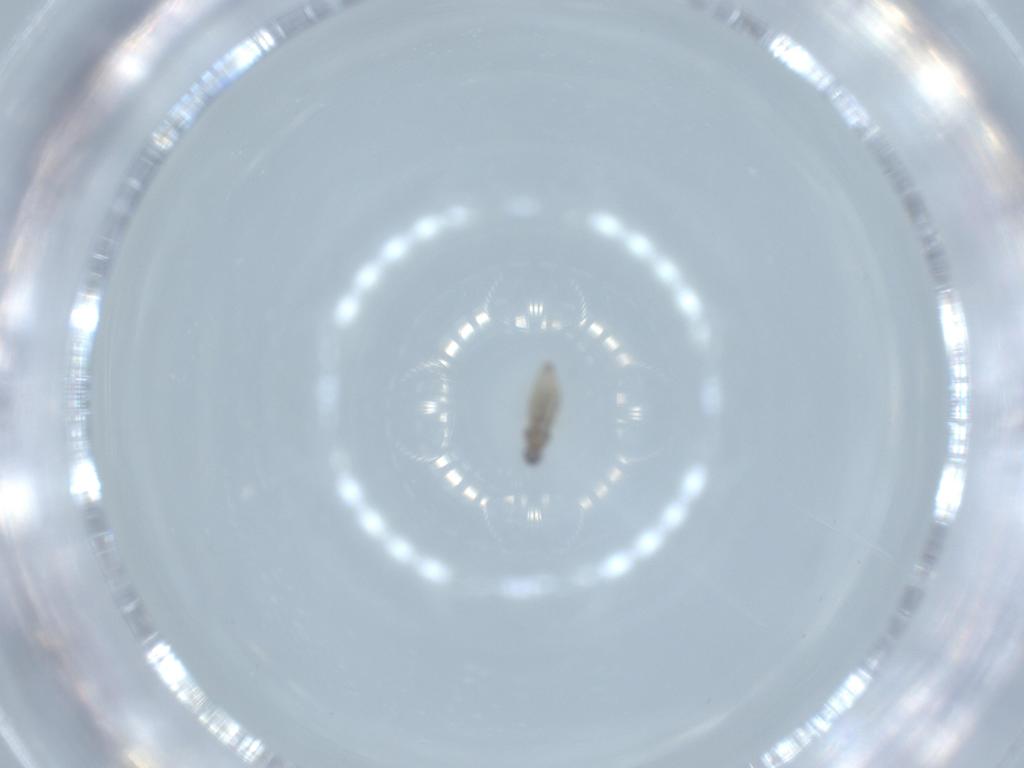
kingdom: Animalia
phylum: Arthropoda
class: Insecta
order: Diptera
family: Cecidomyiidae
